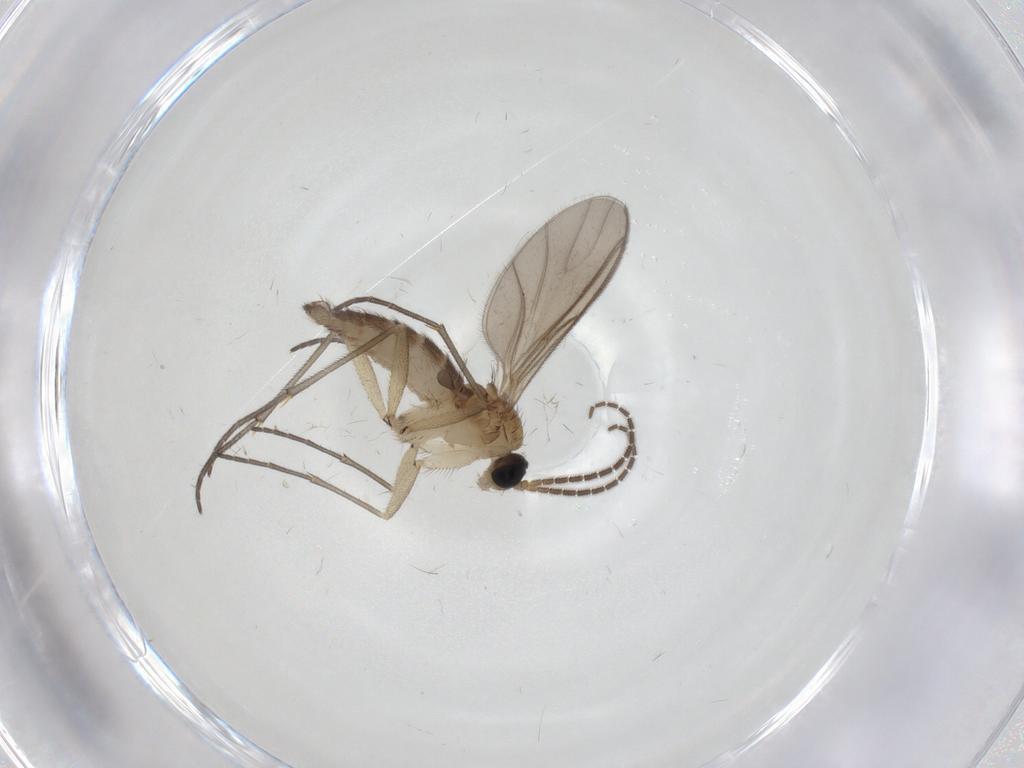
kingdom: Animalia
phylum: Arthropoda
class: Insecta
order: Diptera
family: Sciaridae
